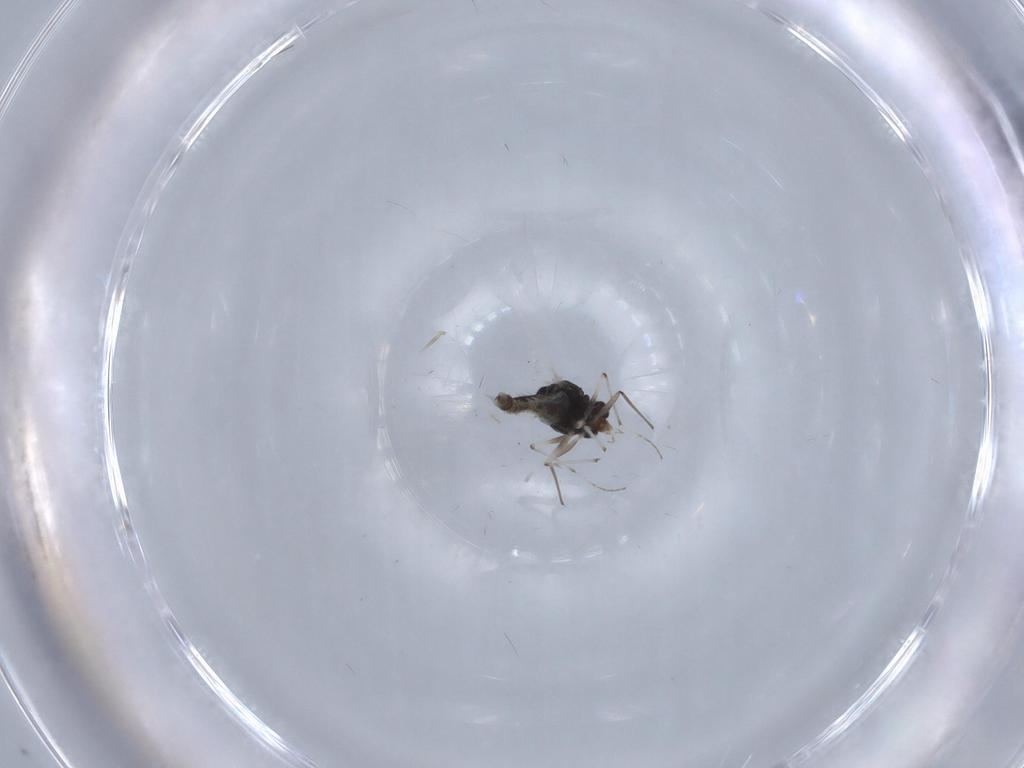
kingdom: Animalia
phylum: Arthropoda
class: Insecta
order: Diptera
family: Chironomidae
